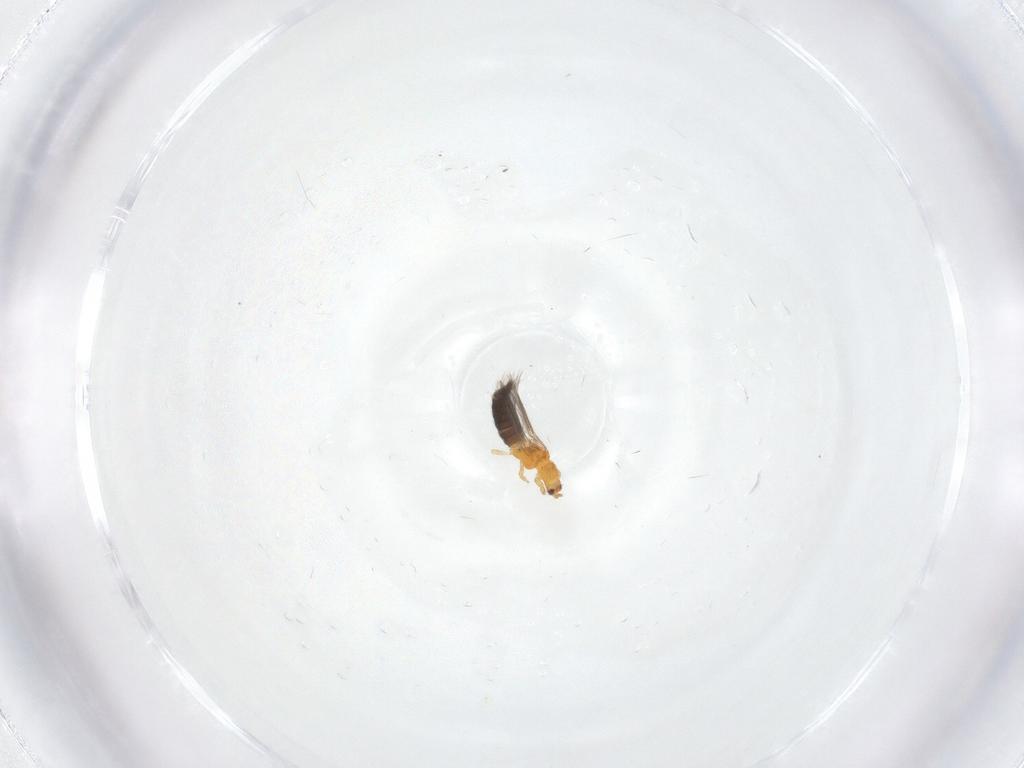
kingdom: Animalia
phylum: Arthropoda
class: Insecta
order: Thysanoptera
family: Thripidae
